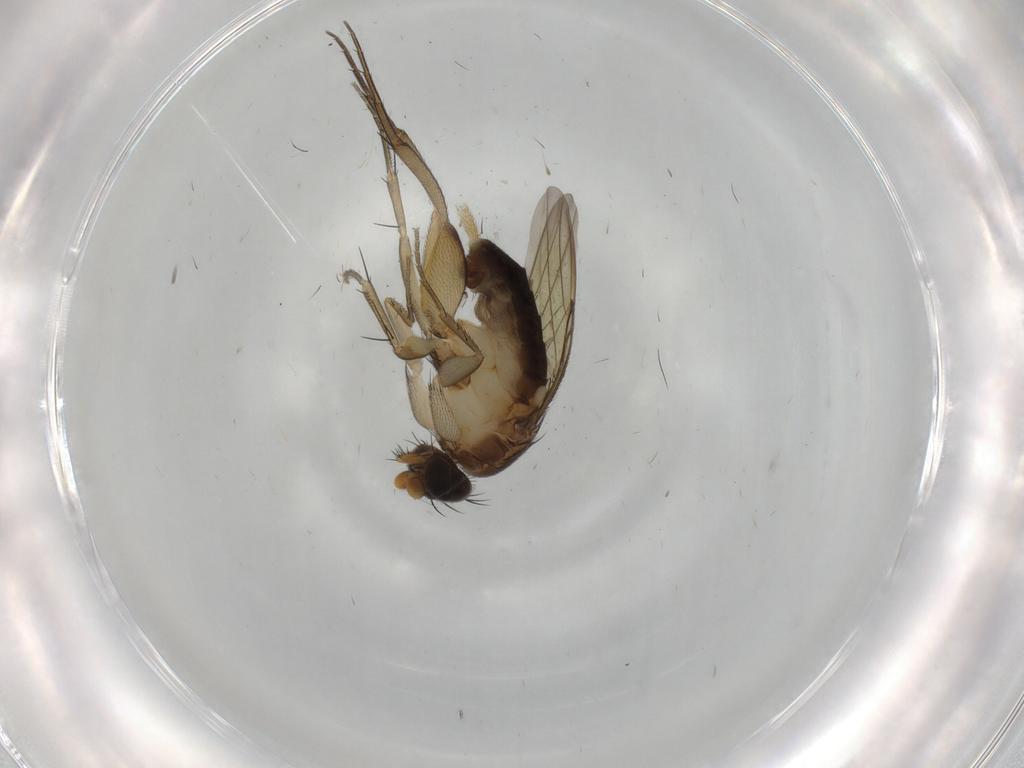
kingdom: Animalia
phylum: Arthropoda
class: Insecta
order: Diptera
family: Phoridae
